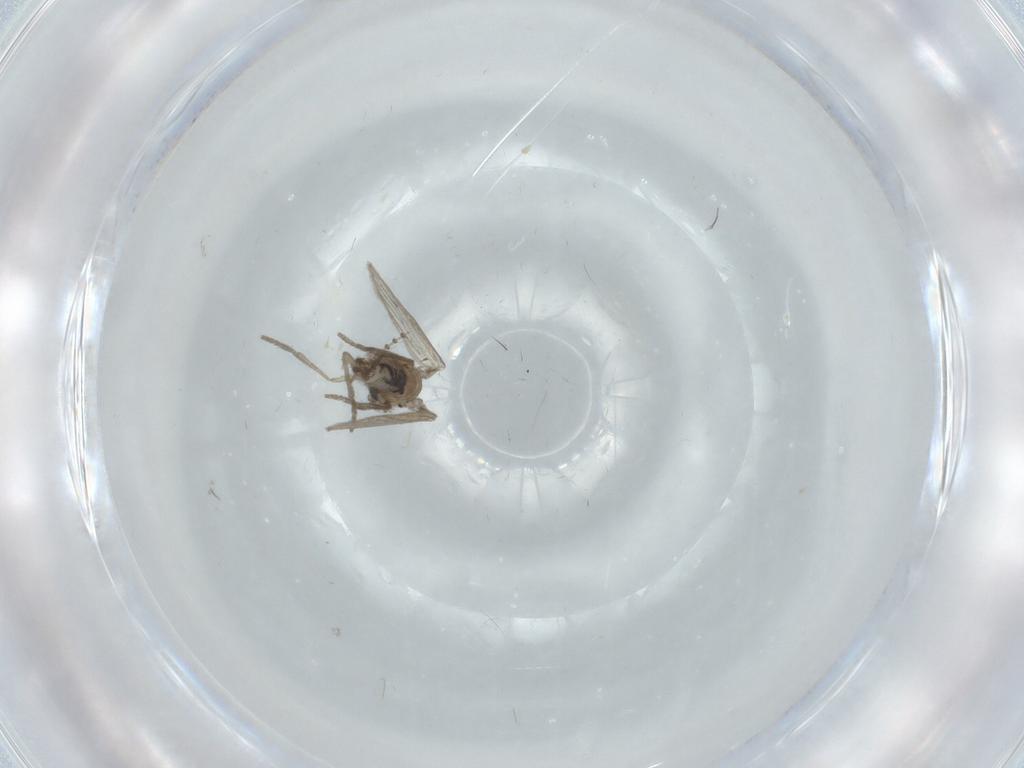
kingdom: Animalia
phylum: Arthropoda
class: Insecta
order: Diptera
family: Psychodidae
